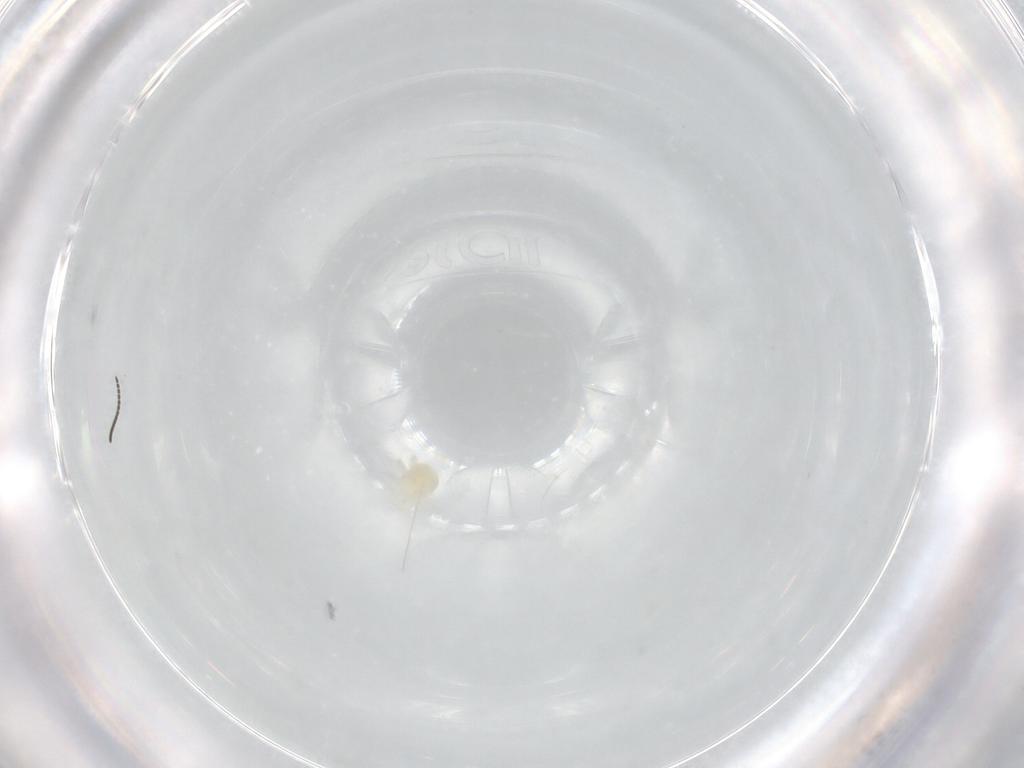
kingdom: Animalia
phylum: Arthropoda
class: Arachnida
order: Trombidiformes
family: Anystidae
